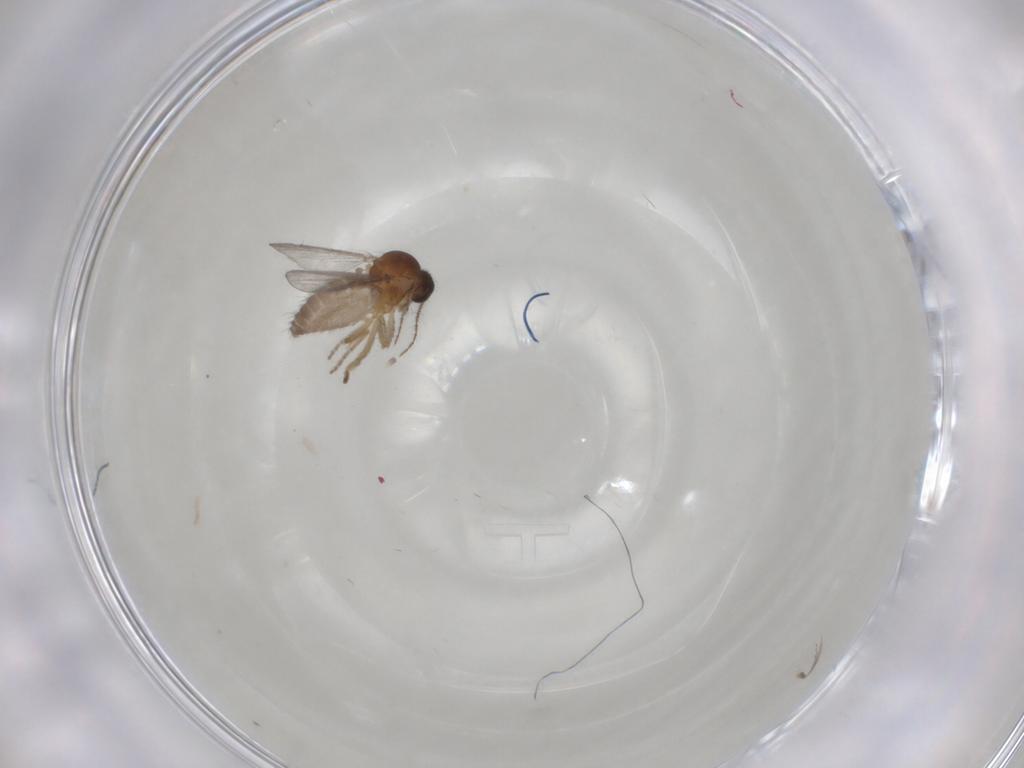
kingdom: Animalia
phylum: Arthropoda
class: Insecta
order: Diptera
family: Ceratopogonidae
